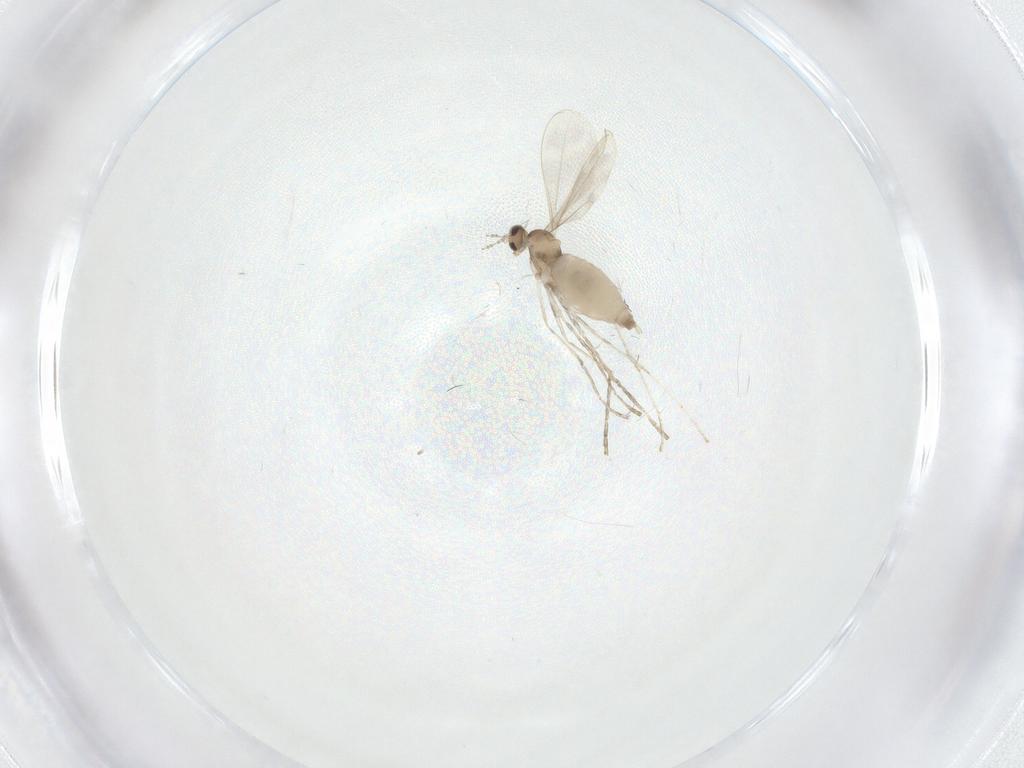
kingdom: Animalia
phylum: Arthropoda
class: Insecta
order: Diptera
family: Cecidomyiidae
